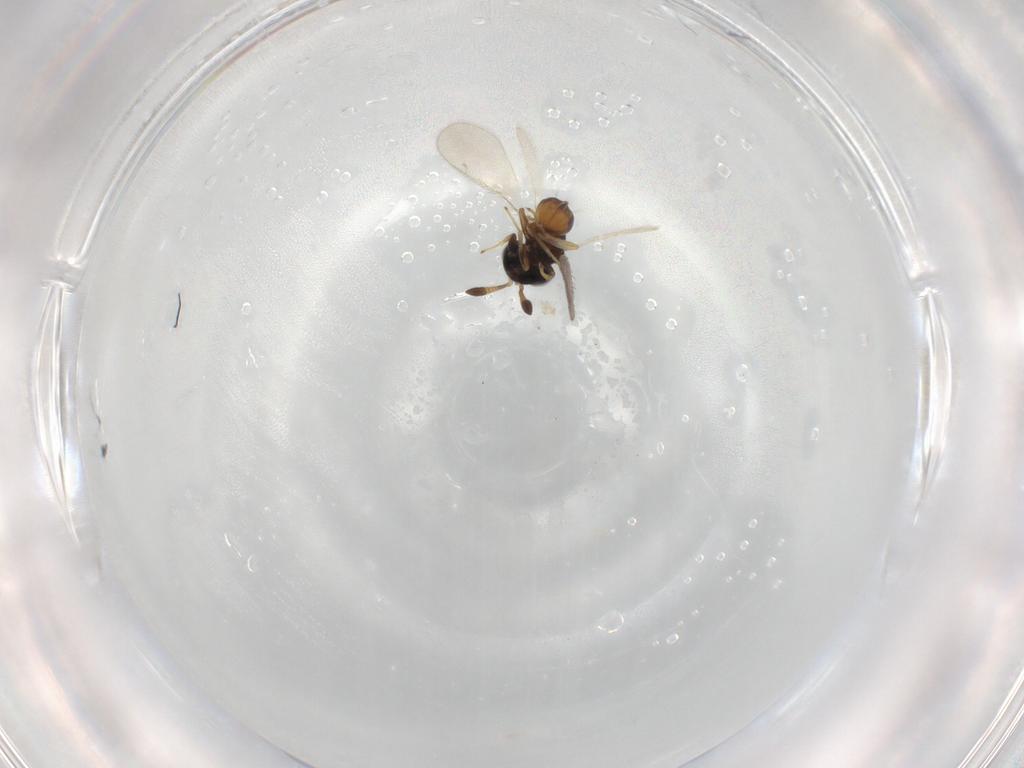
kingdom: Animalia
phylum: Arthropoda
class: Insecta
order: Hymenoptera
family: Diparidae
